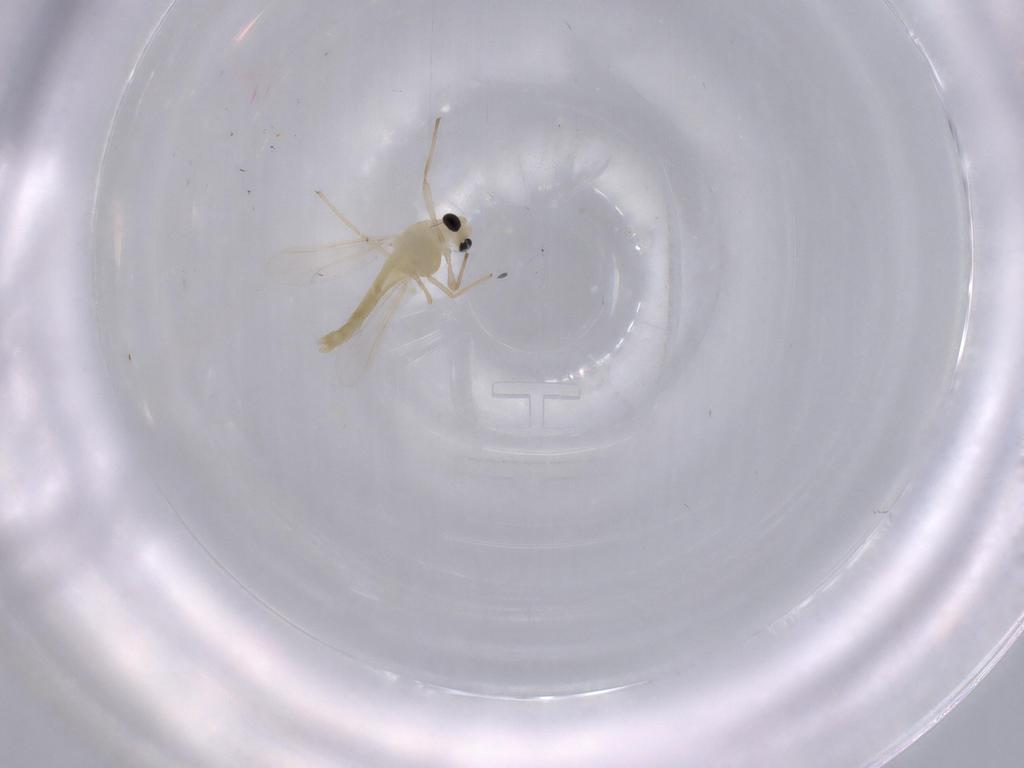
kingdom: Animalia
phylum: Arthropoda
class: Insecta
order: Diptera
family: Chironomidae
